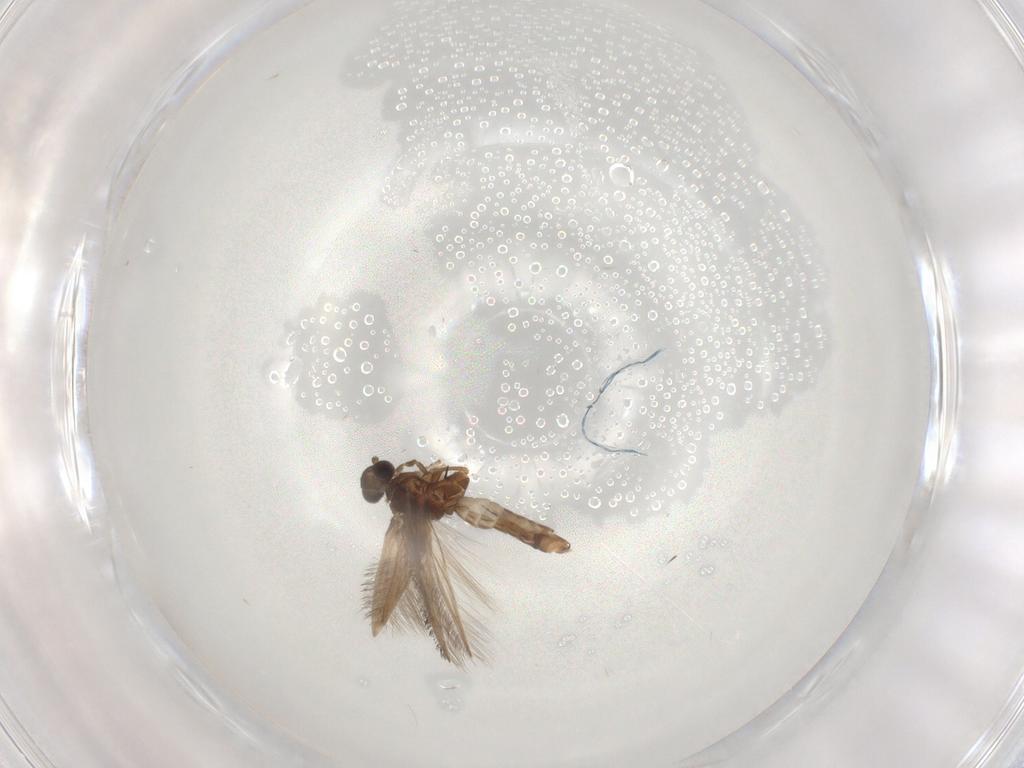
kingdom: Animalia
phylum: Arthropoda
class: Insecta
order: Trichoptera
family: Hydroptilidae
